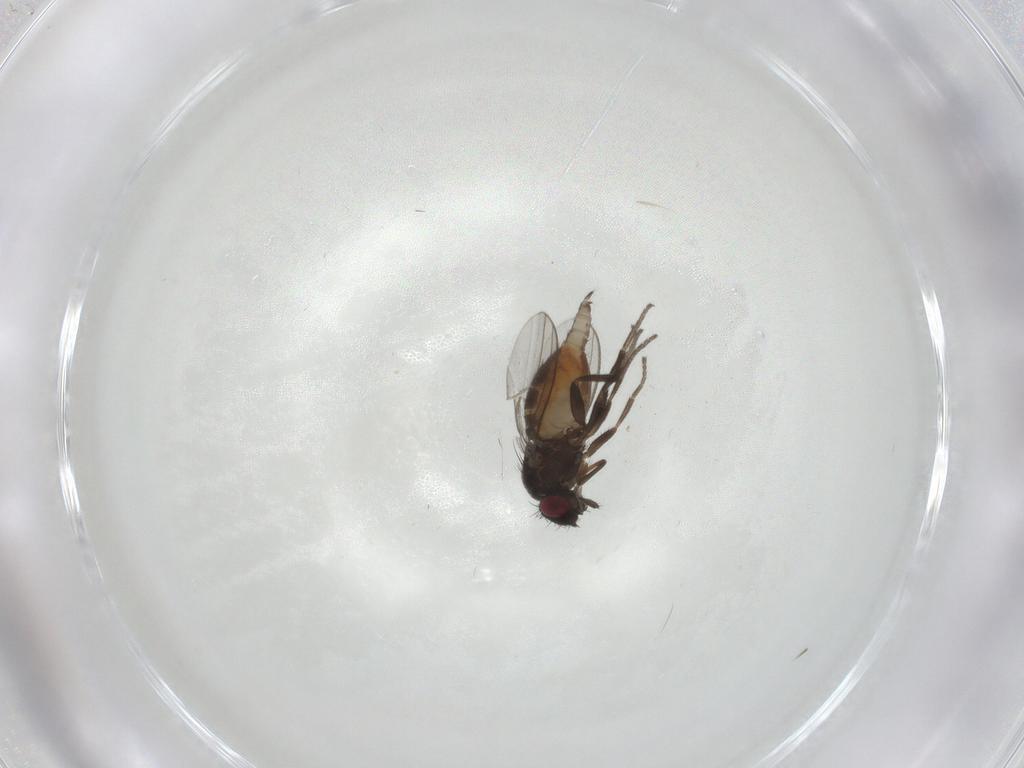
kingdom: Animalia
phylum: Arthropoda
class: Insecta
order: Diptera
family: Milichiidae
